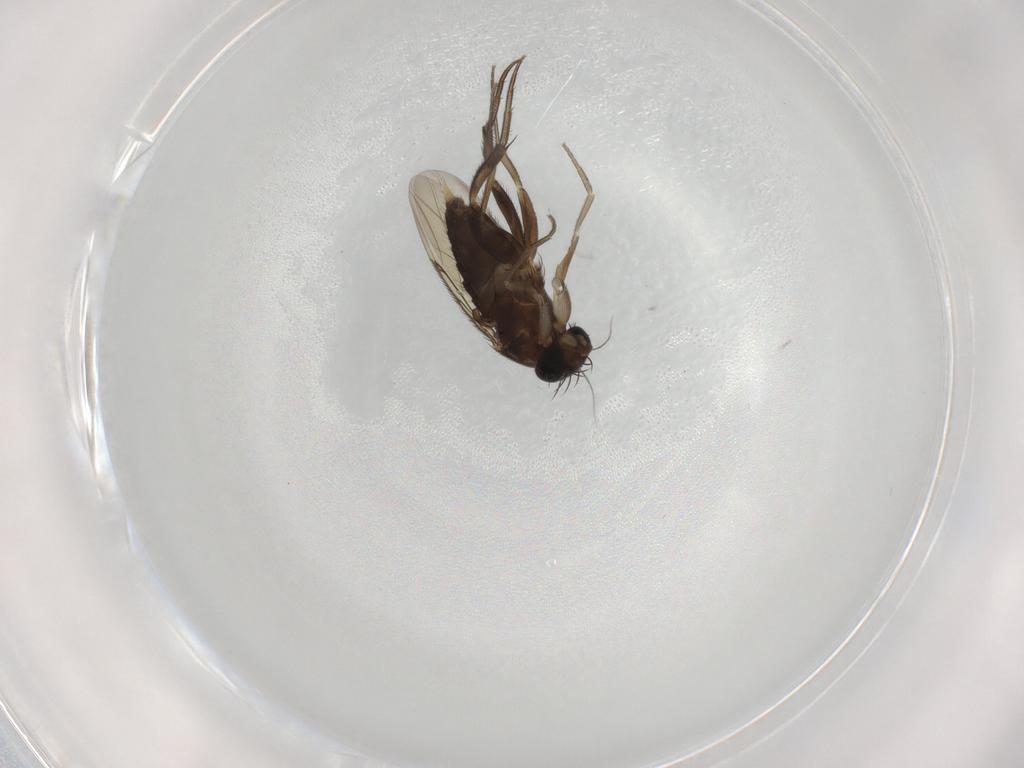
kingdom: Animalia
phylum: Arthropoda
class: Insecta
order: Diptera
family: Phoridae
